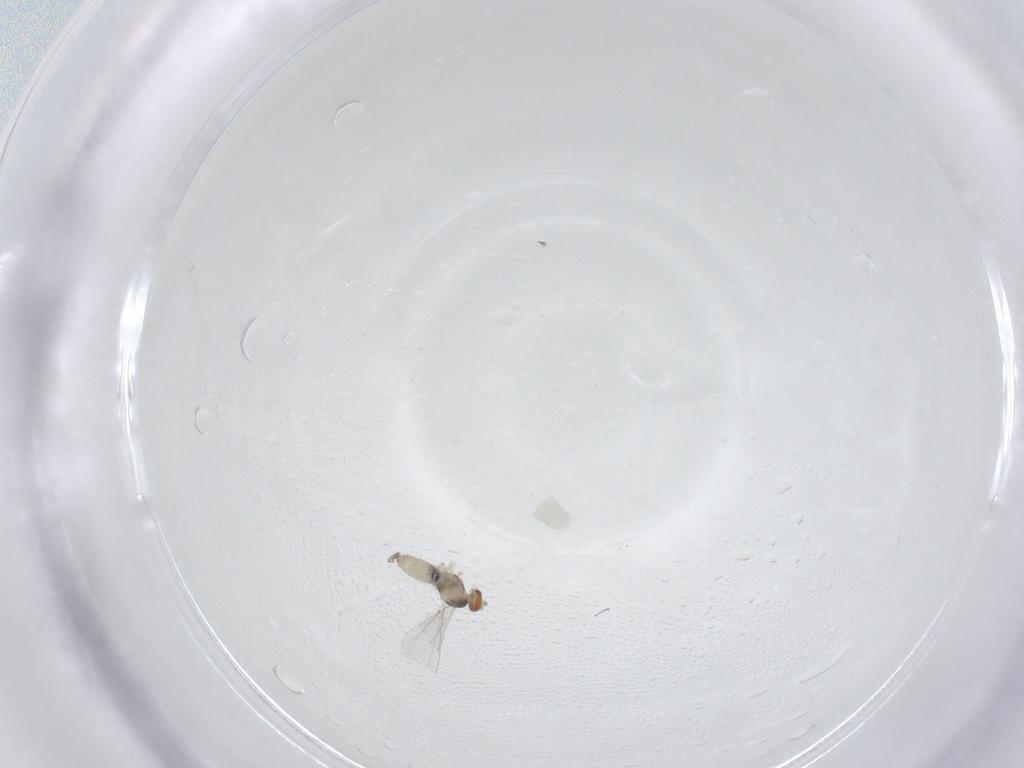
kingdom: Animalia
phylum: Arthropoda
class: Insecta
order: Diptera
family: Cecidomyiidae
